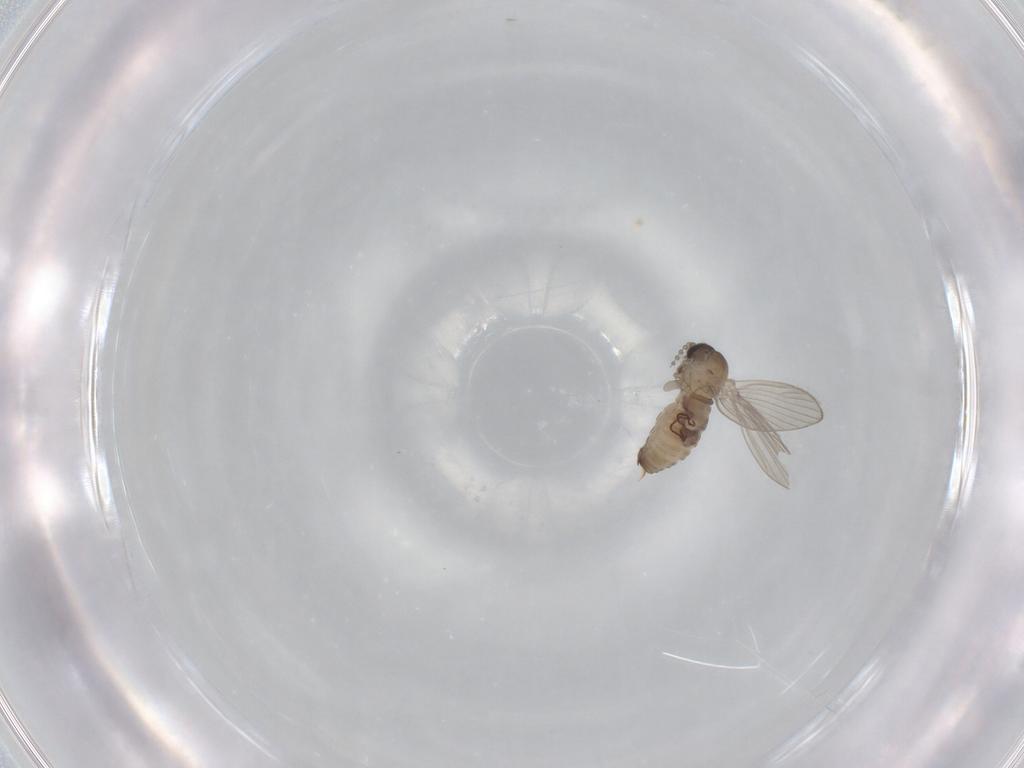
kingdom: Animalia
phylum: Arthropoda
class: Insecta
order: Diptera
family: Psychodidae
